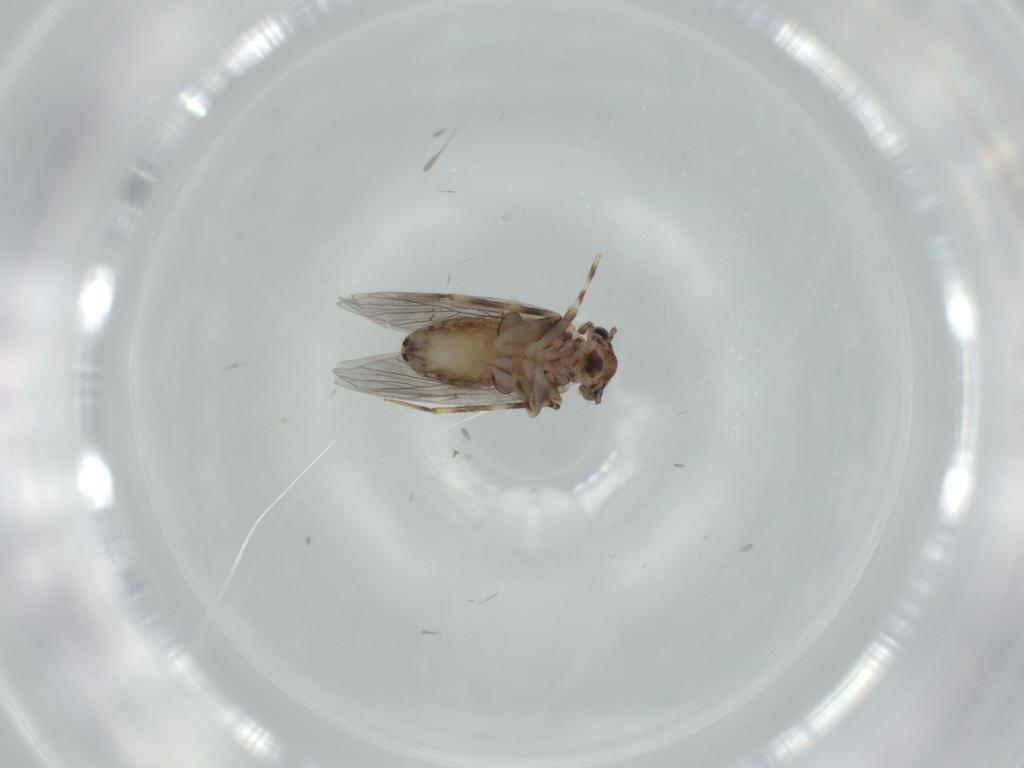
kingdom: Animalia
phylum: Arthropoda
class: Insecta
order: Psocodea
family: Lepidopsocidae
